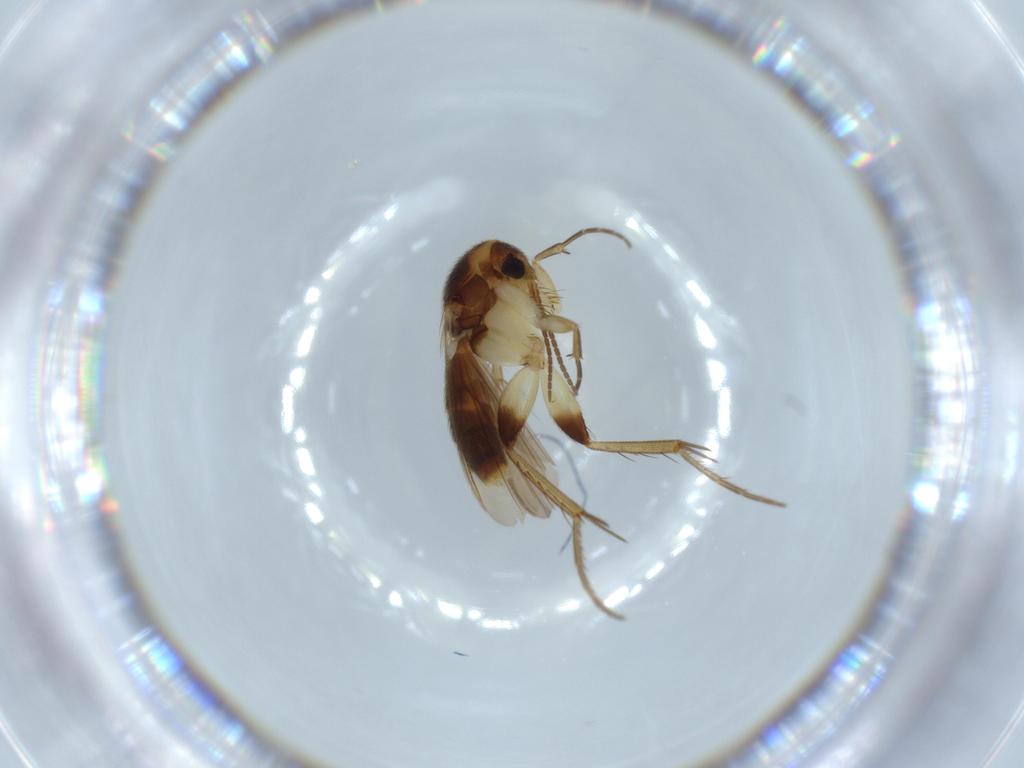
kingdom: Animalia
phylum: Arthropoda
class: Insecta
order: Diptera
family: Mycetophilidae
